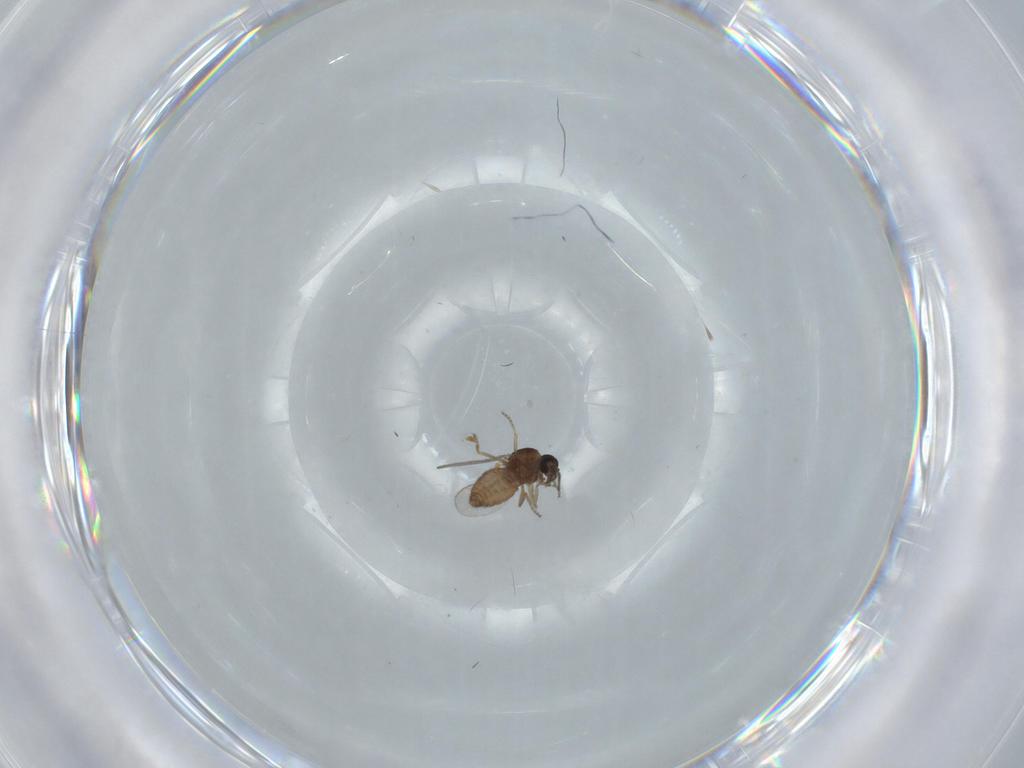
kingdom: Animalia
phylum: Arthropoda
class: Insecta
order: Diptera
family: Ceratopogonidae
